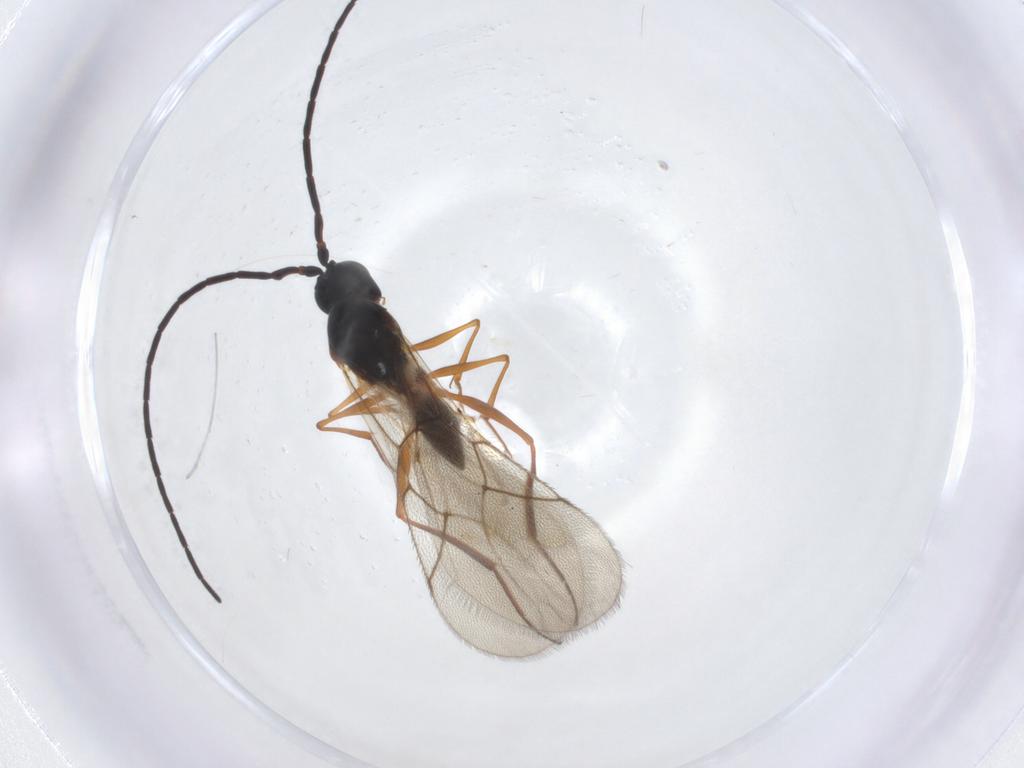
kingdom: Animalia
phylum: Arthropoda
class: Insecta
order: Hymenoptera
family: Figitidae
